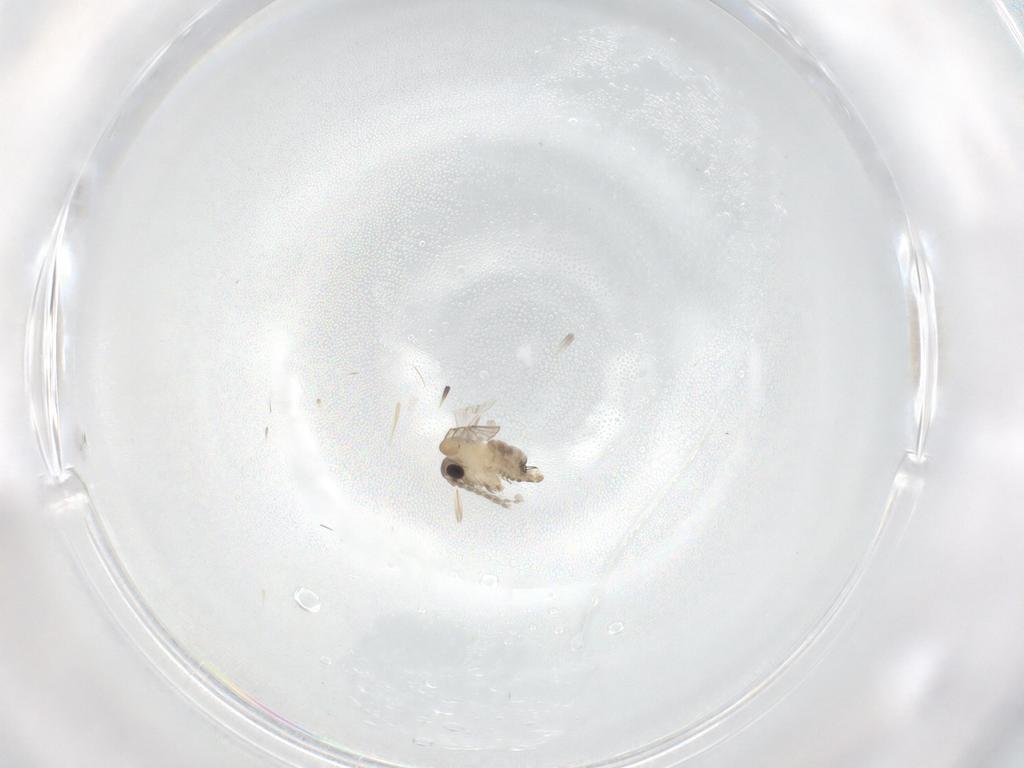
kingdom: Animalia
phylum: Arthropoda
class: Insecta
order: Diptera
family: Psychodidae
